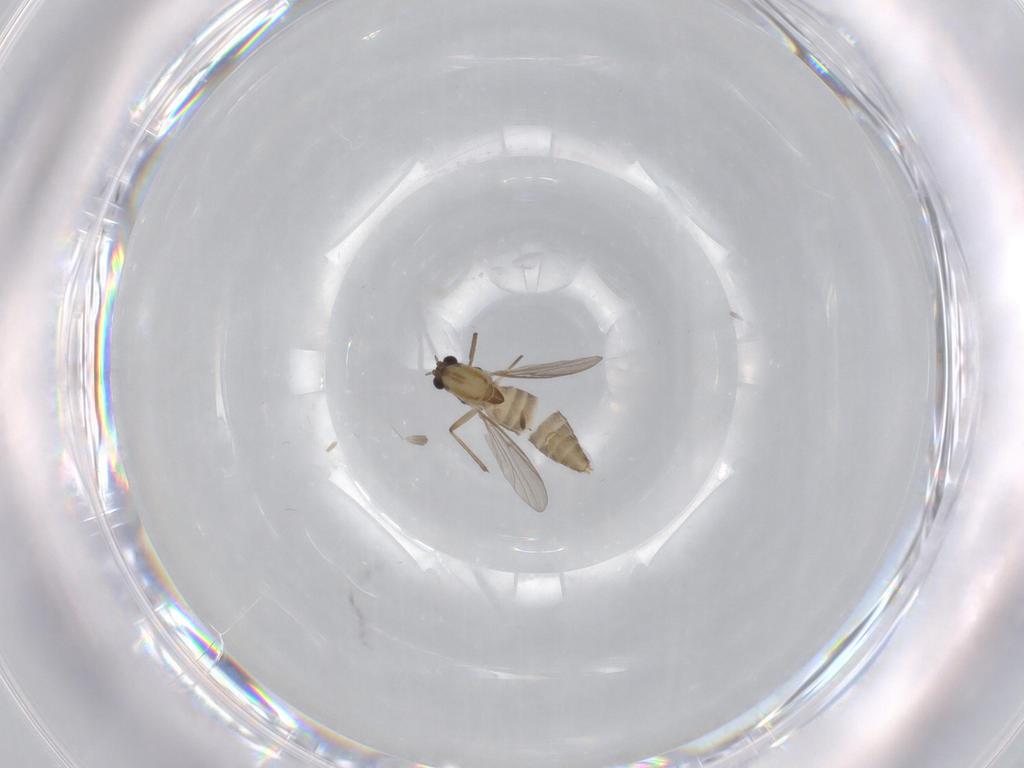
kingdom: Animalia
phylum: Arthropoda
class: Insecta
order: Diptera
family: Chironomidae
